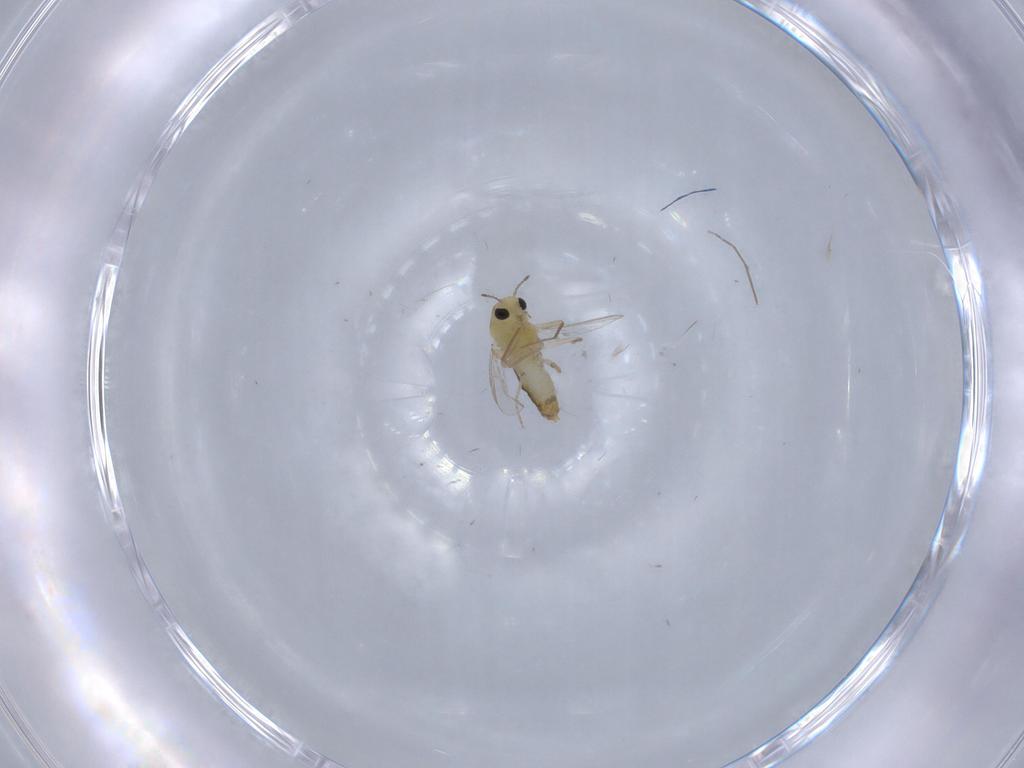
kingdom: Animalia
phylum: Arthropoda
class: Insecta
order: Diptera
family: Chironomidae
